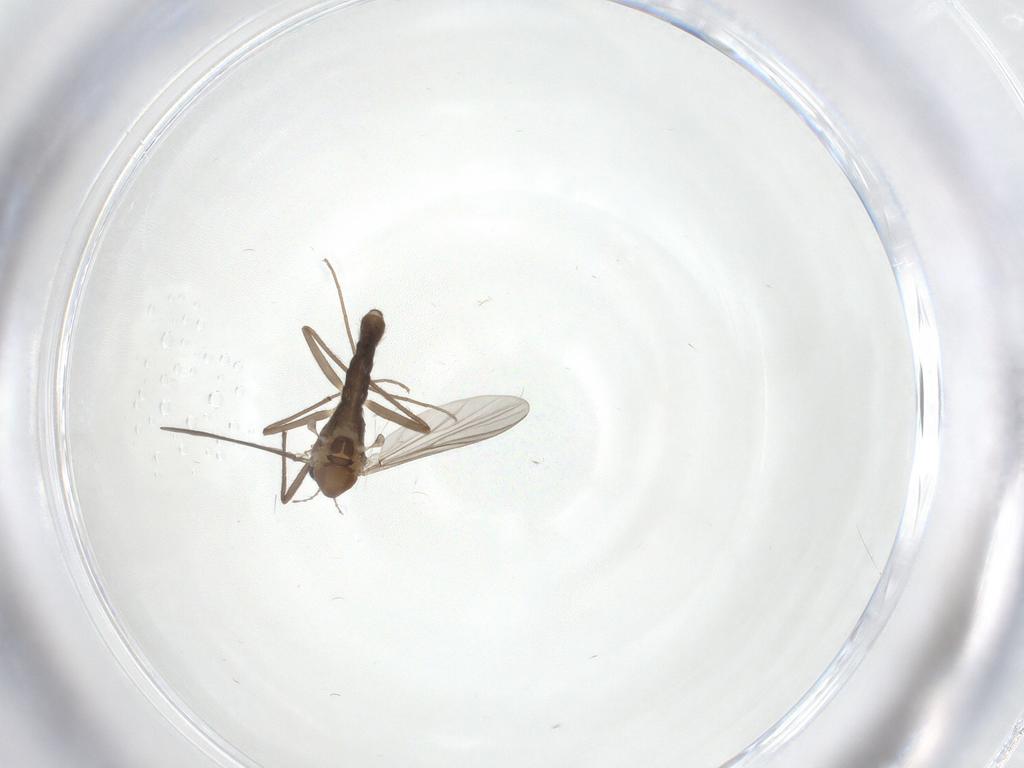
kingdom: Animalia
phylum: Arthropoda
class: Insecta
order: Diptera
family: Chironomidae
